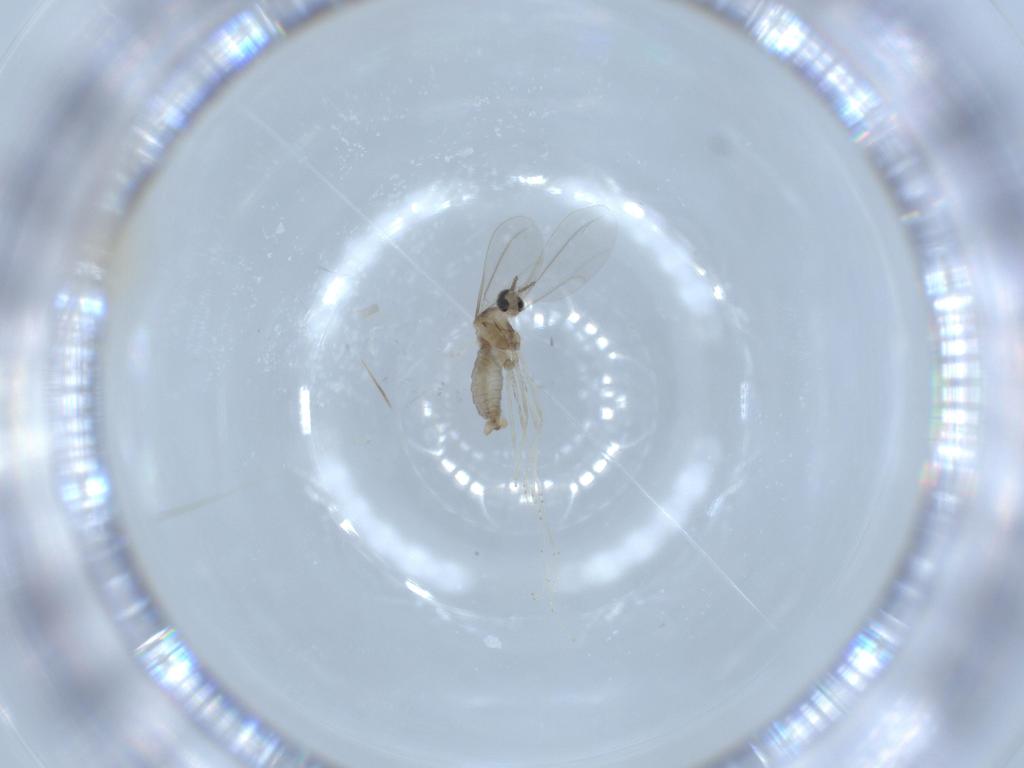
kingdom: Animalia
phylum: Arthropoda
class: Insecta
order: Diptera
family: Cecidomyiidae
